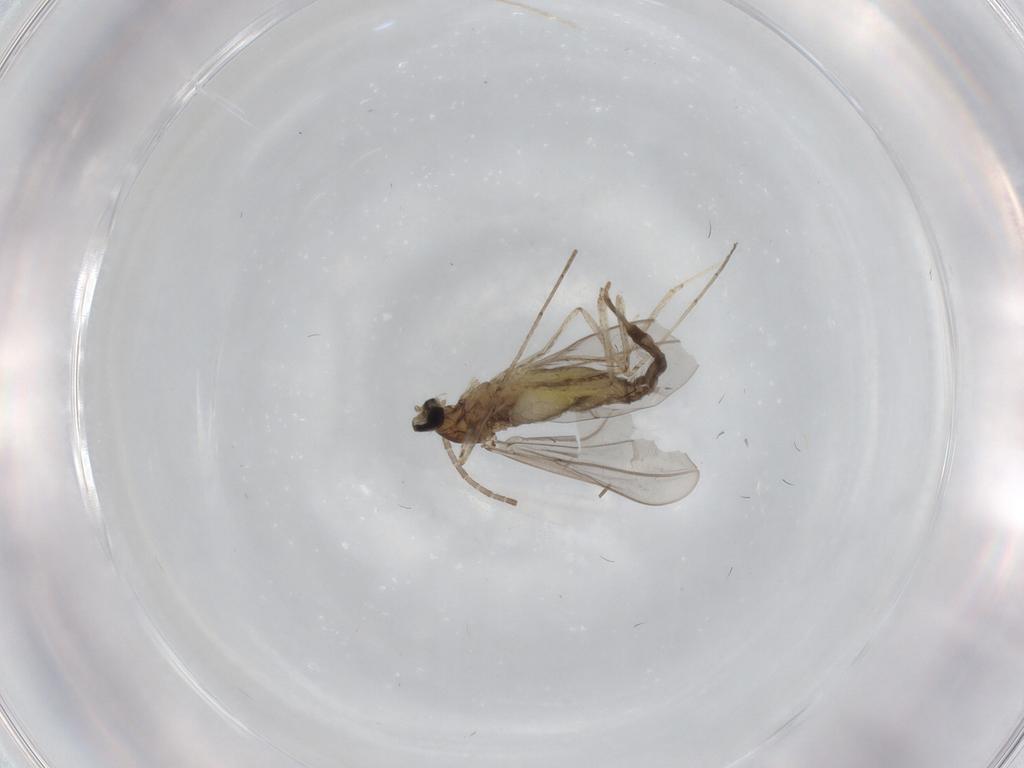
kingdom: Animalia
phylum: Arthropoda
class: Insecta
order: Diptera
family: Cecidomyiidae
